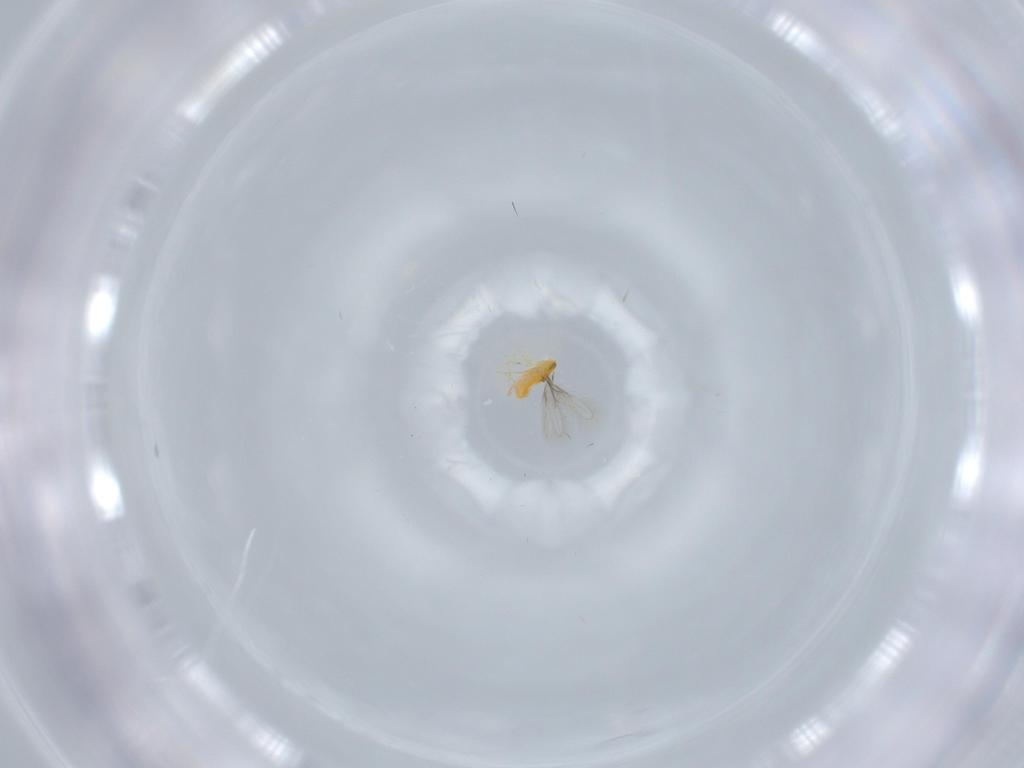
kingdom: Animalia
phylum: Arthropoda
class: Insecta
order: Hymenoptera
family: Aphelinidae
